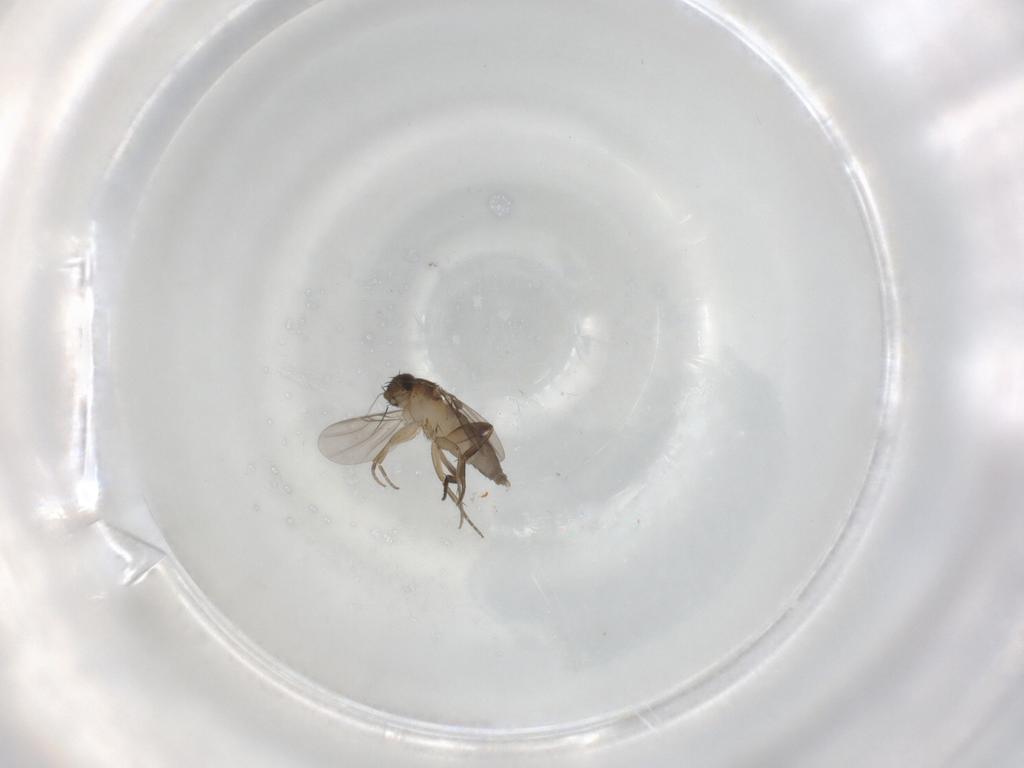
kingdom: Animalia
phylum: Arthropoda
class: Insecta
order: Diptera
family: Phoridae
